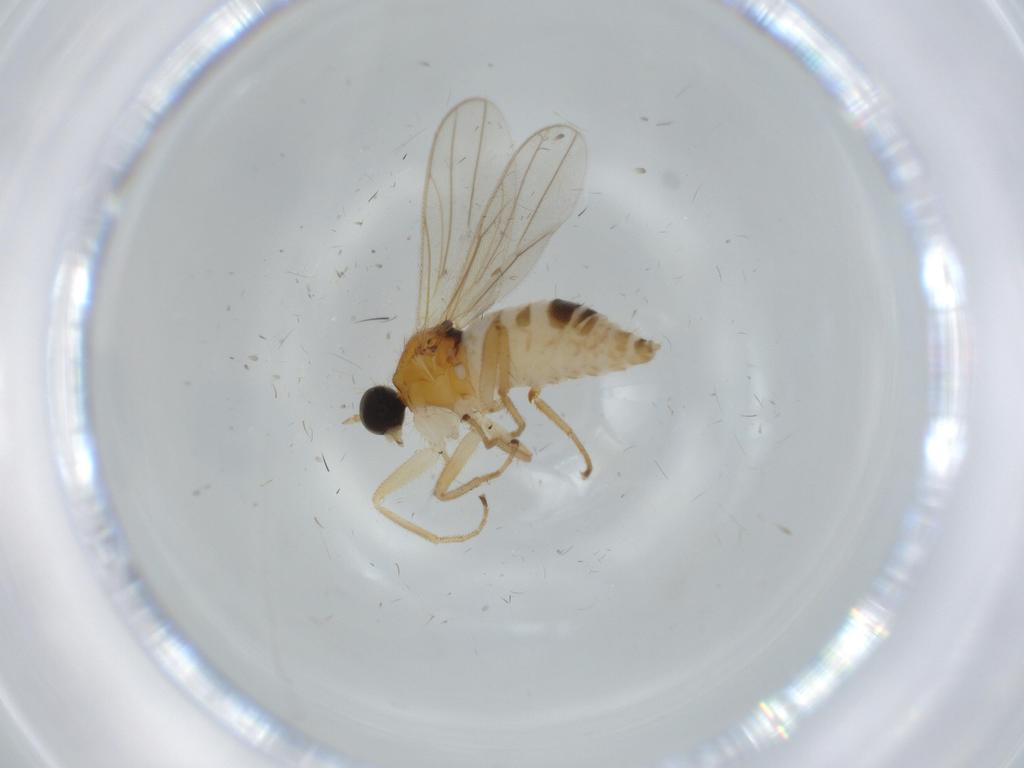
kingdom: Animalia
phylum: Arthropoda
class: Insecta
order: Diptera
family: Hybotidae
